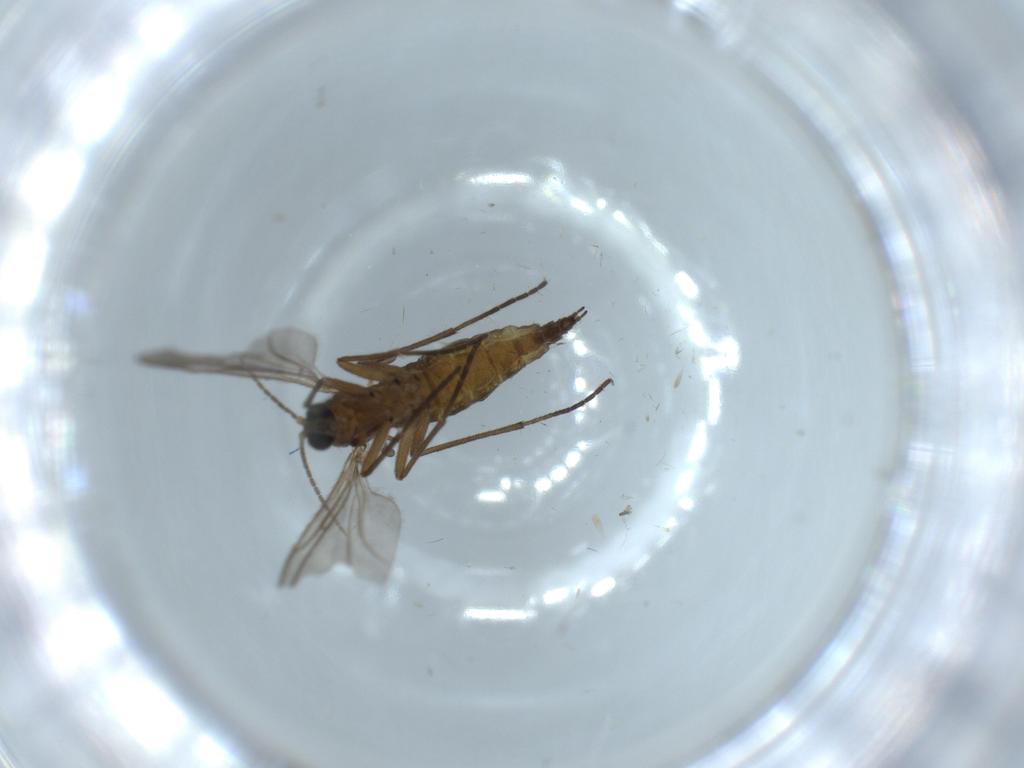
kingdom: Animalia
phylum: Arthropoda
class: Insecta
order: Diptera
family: Sciaridae
